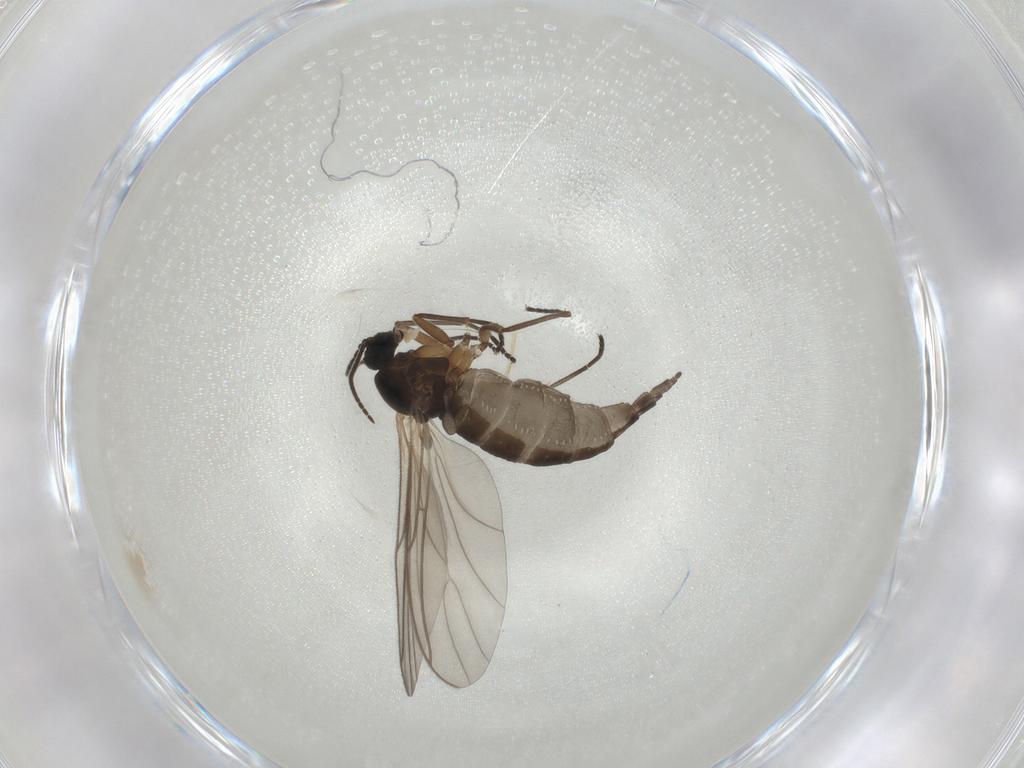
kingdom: Animalia
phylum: Arthropoda
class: Insecta
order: Diptera
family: Sciaridae
